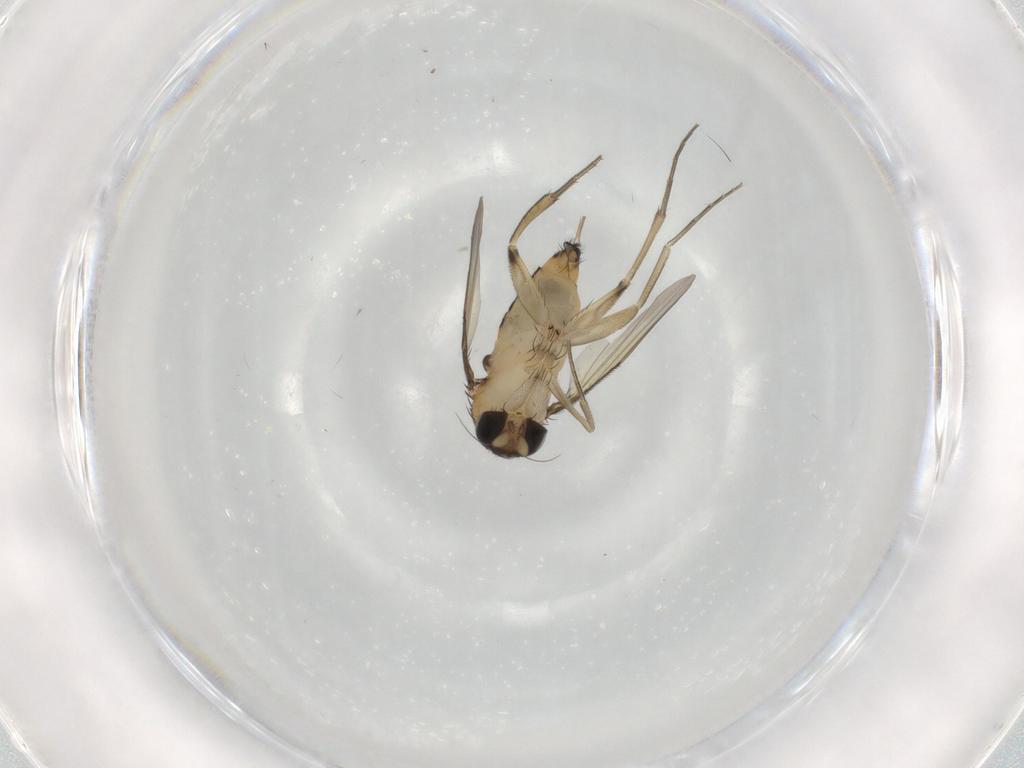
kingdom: Animalia
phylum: Arthropoda
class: Insecta
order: Diptera
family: Phoridae
